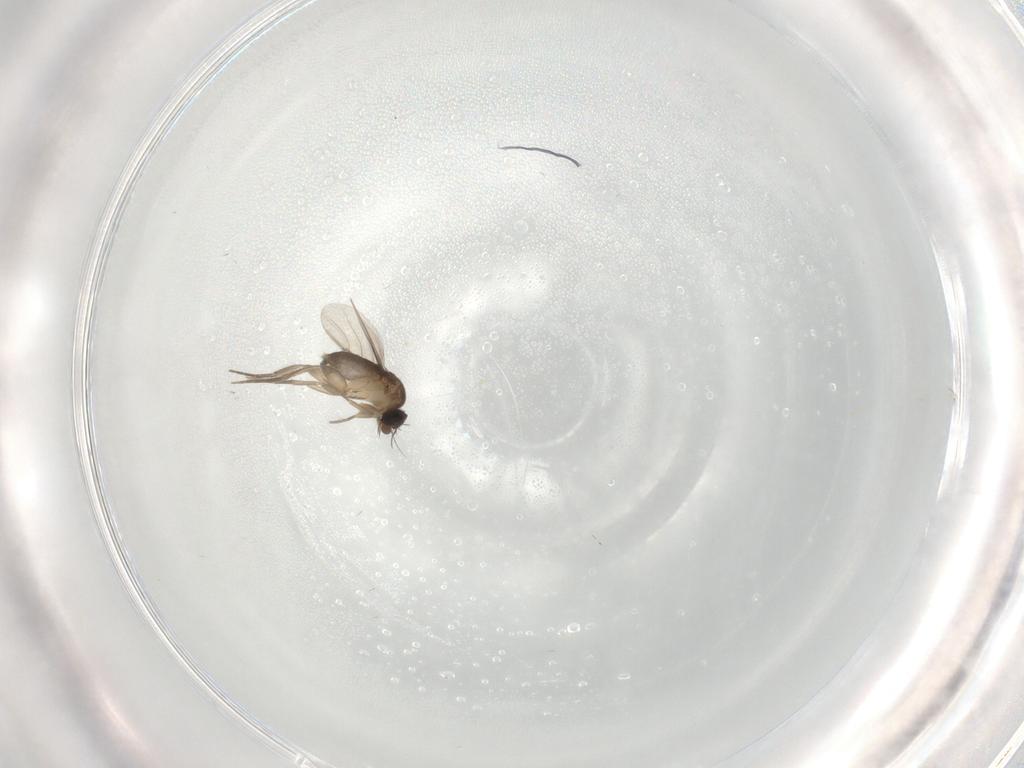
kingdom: Animalia
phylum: Arthropoda
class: Insecta
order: Diptera
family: Phoridae
